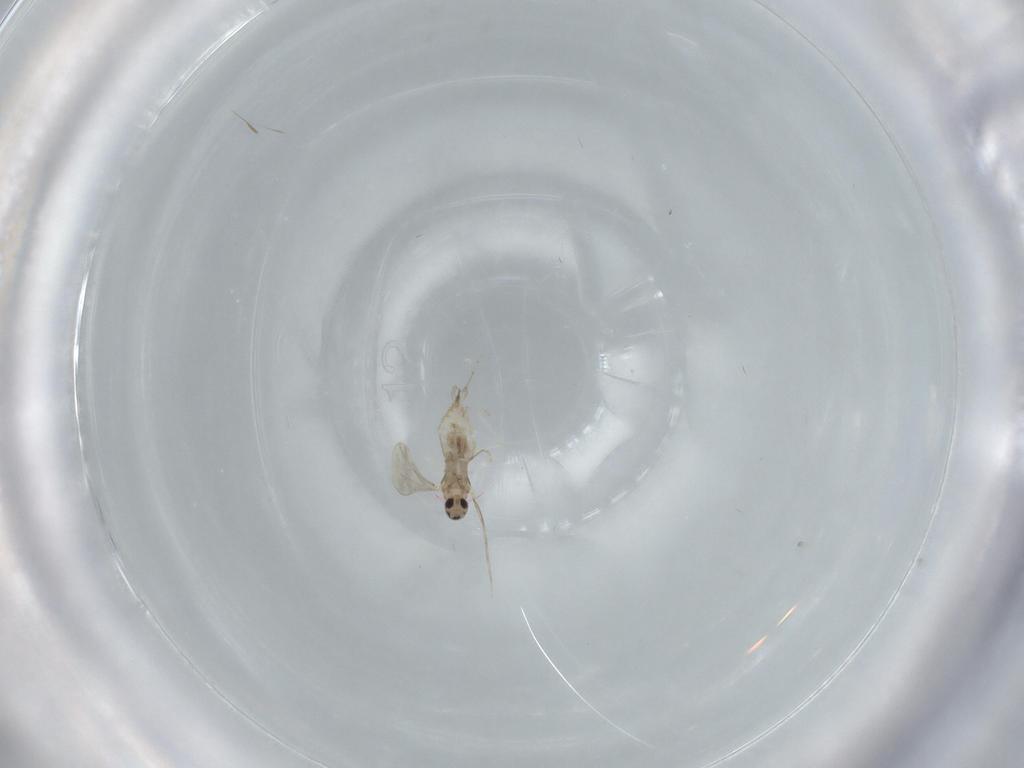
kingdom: Animalia
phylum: Arthropoda
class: Insecta
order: Diptera
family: Cecidomyiidae
